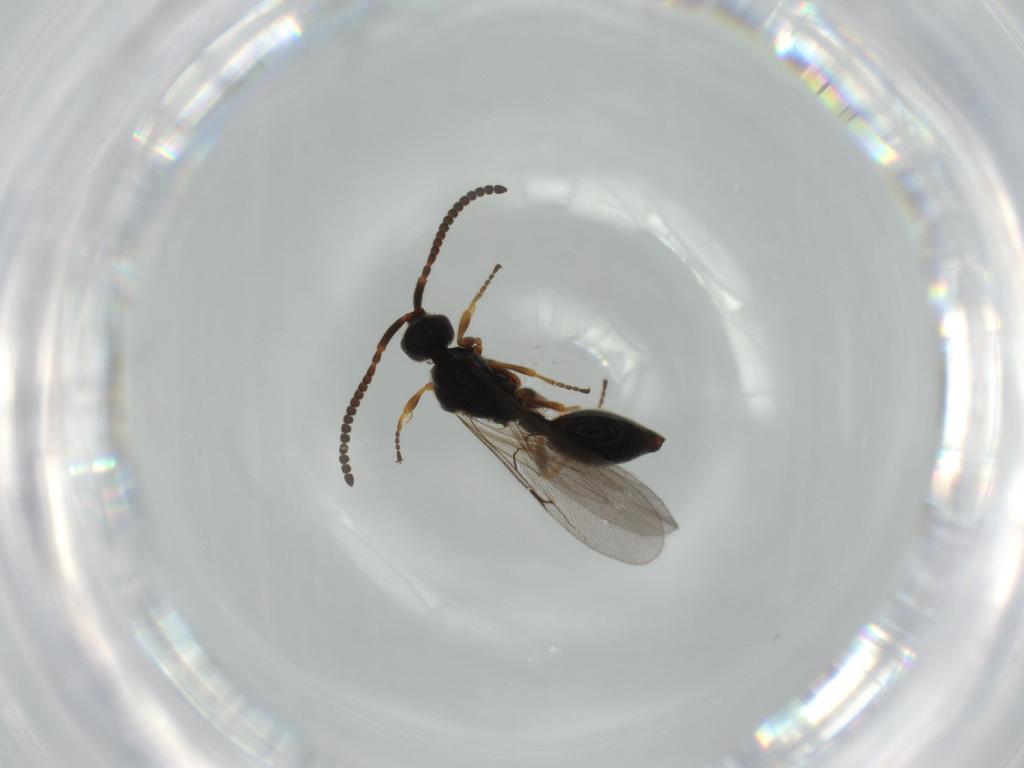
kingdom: Animalia
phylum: Arthropoda
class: Insecta
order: Hymenoptera
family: Diapriidae
